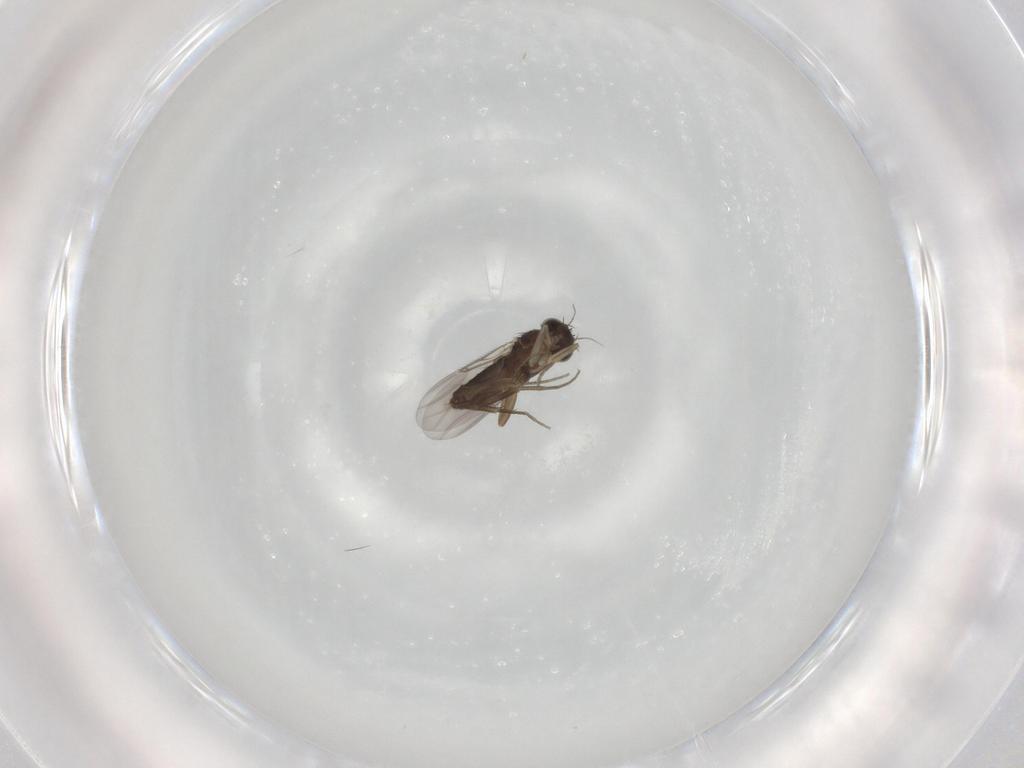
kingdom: Animalia
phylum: Arthropoda
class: Insecta
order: Diptera
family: Phoridae
